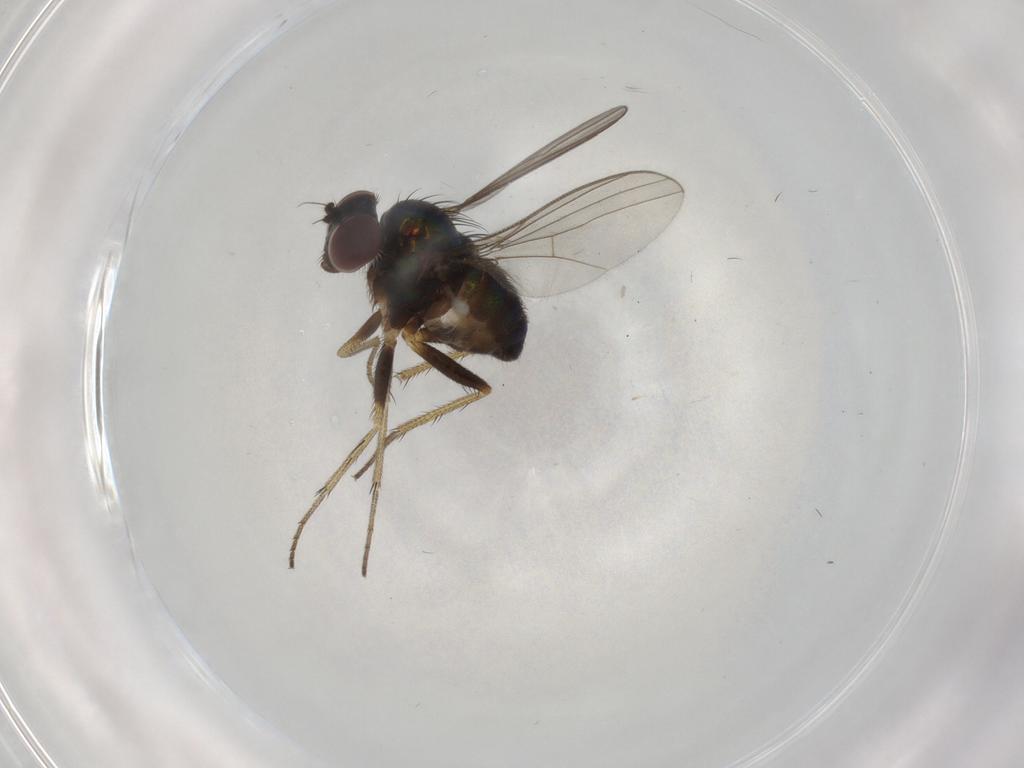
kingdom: Animalia
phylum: Arthropoda
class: Insecta
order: Diptera
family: Dolichopodidae
